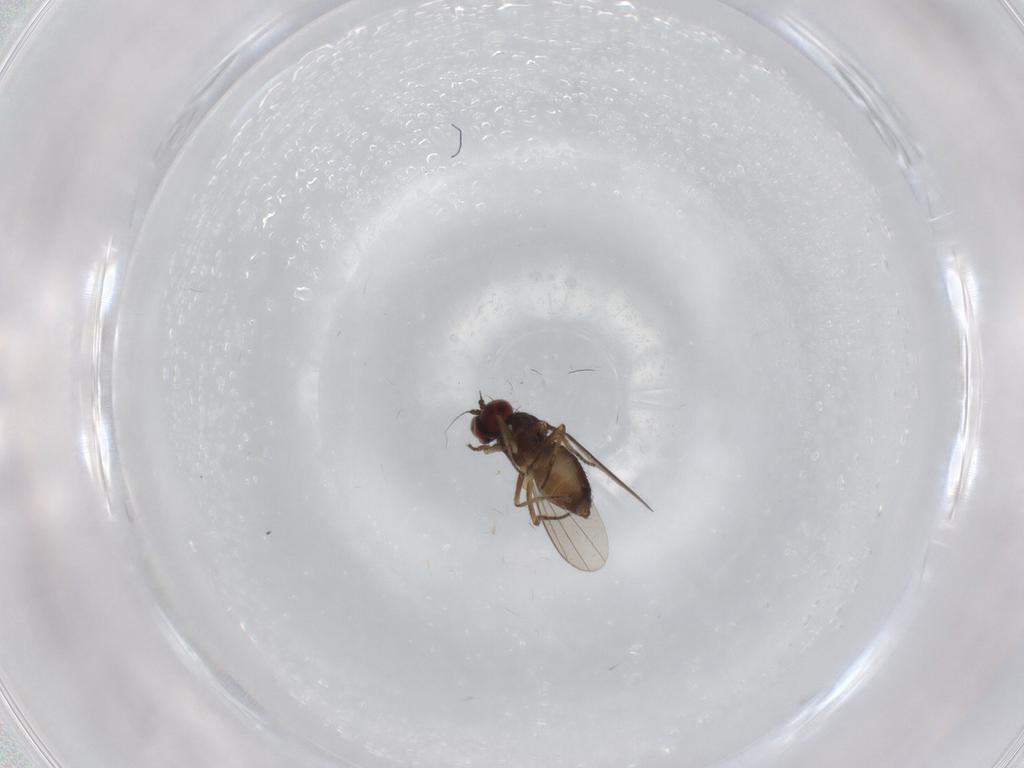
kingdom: Animalia
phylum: Arthropoda
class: Insecta
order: Diptera
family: Dolichopodidae
